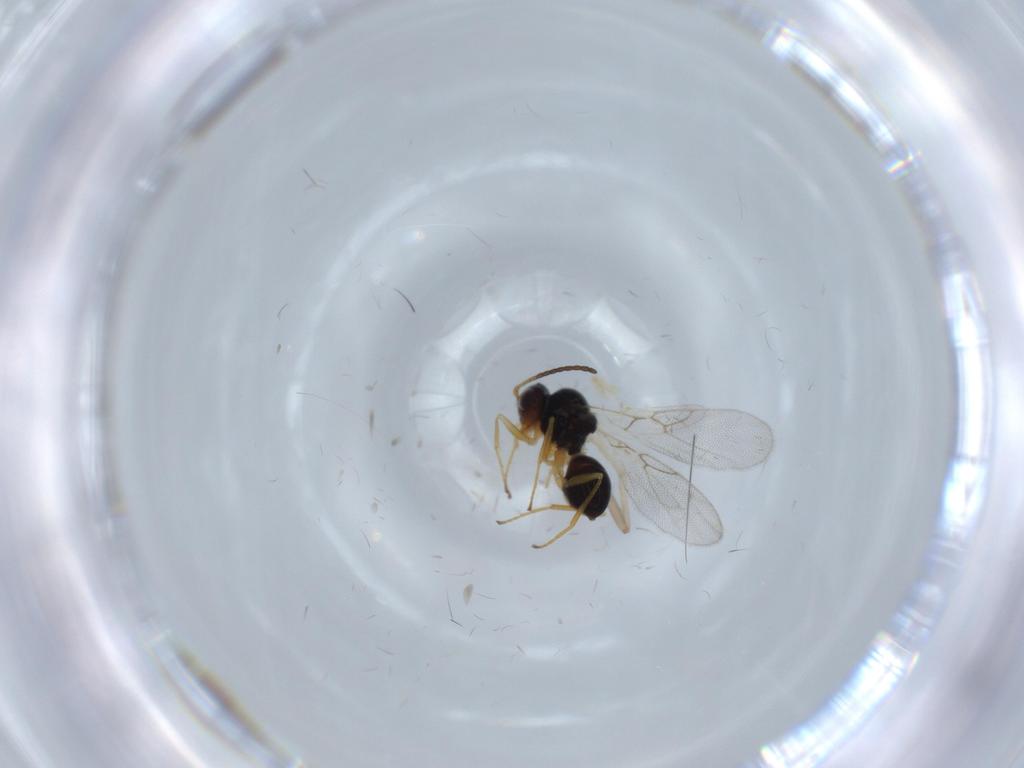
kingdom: Animalia
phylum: Arthropoda
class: Insecta
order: Hymenoptera
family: Figitidae
